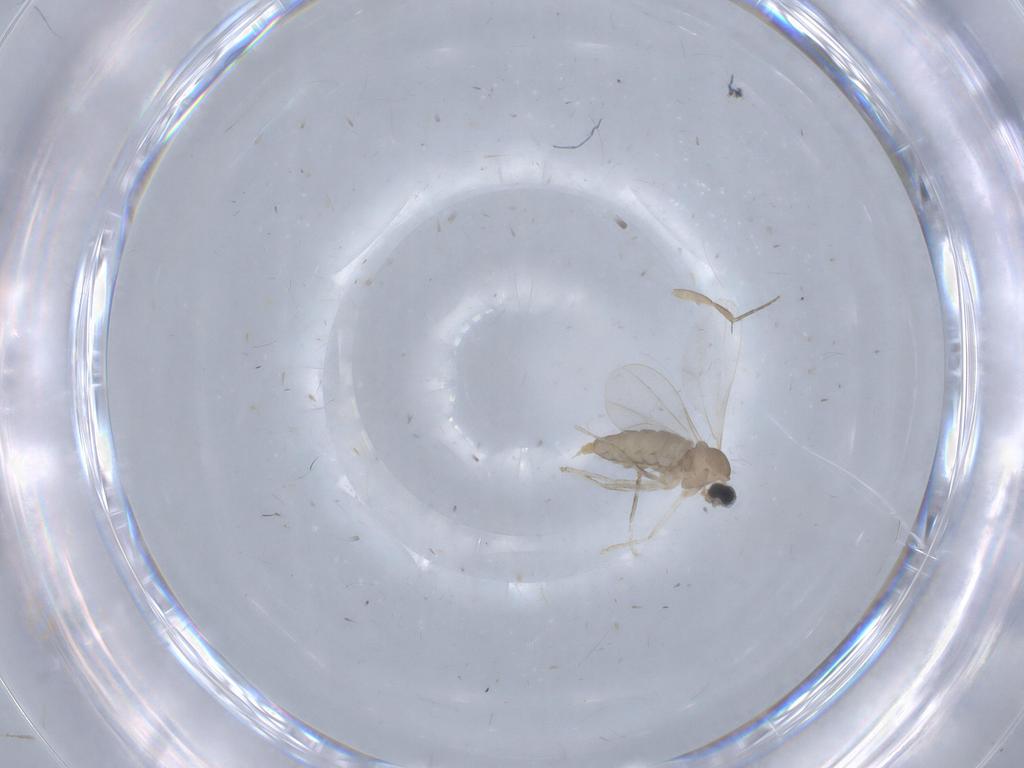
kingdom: Animalia
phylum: Arthropoda
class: Insecta
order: Diptera
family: Cecidomyiidae
